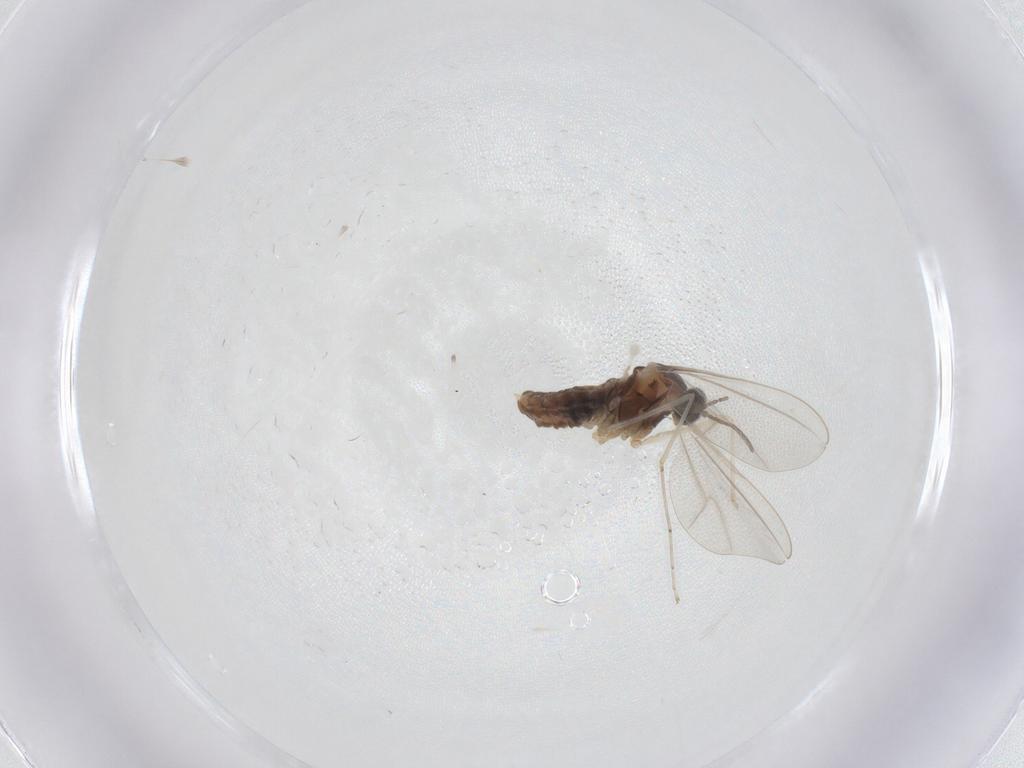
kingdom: Animalia
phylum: Arthropoda
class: Insecta
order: Diptera
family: Cecidomyiidae
